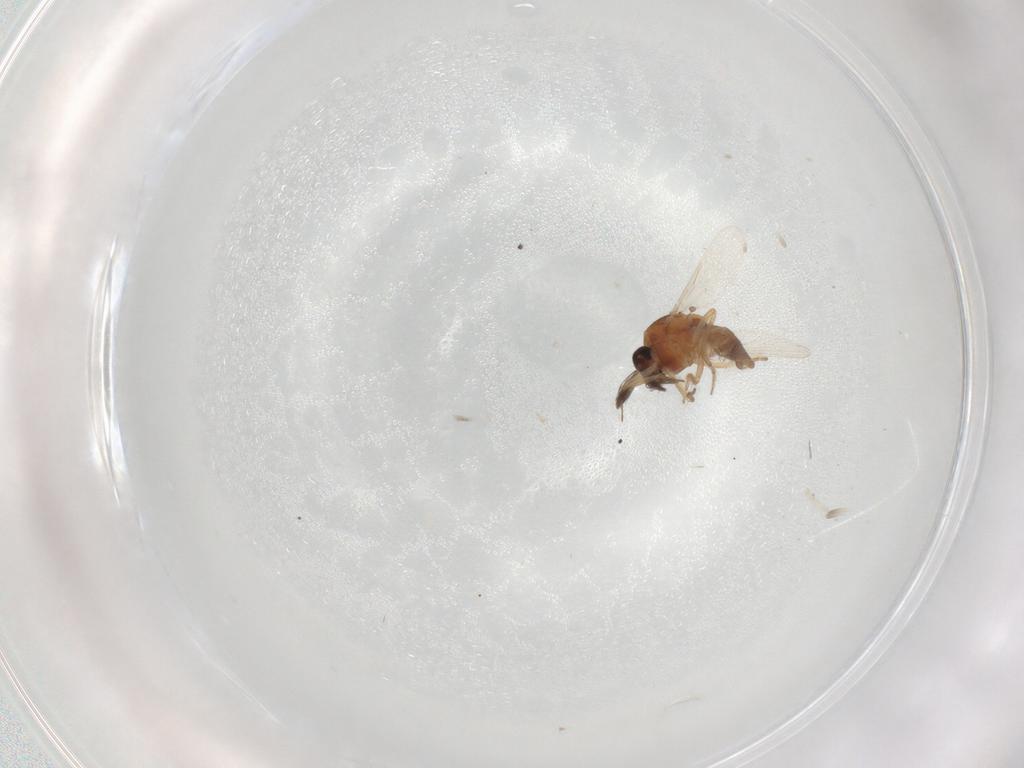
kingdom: Animalia
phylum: Arthropoda
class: Insecta
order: Diptera
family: Ceratopogonidae
